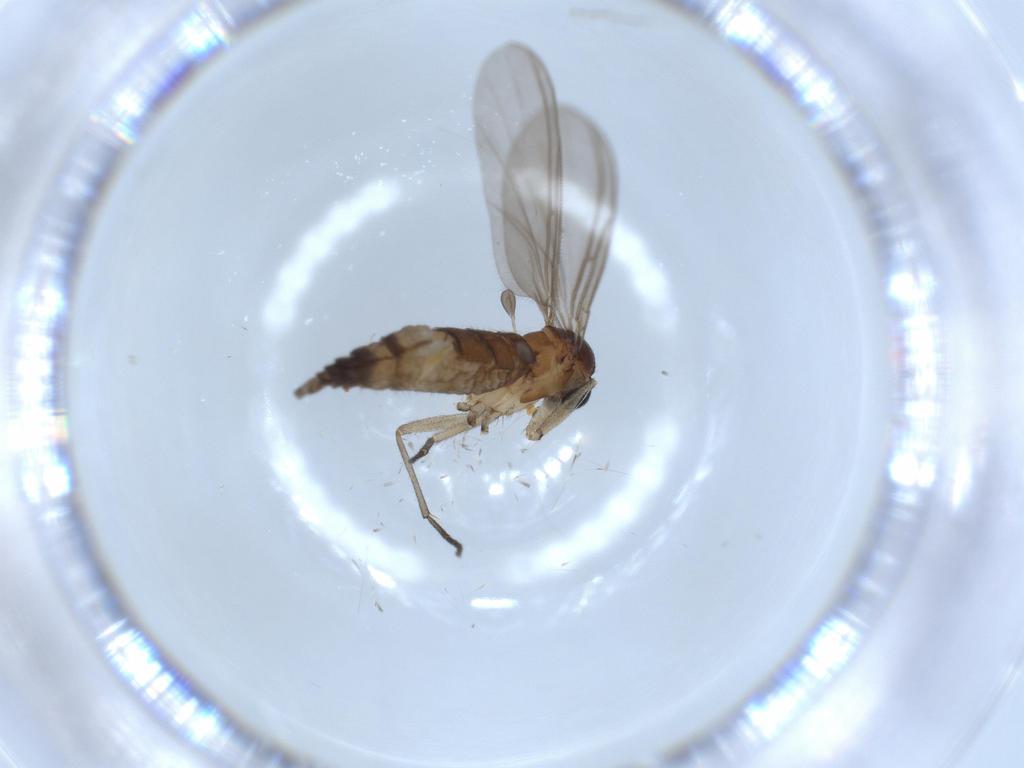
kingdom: Animalia
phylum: Arthropoda
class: Insecta
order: Diptera
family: Sciaridae
